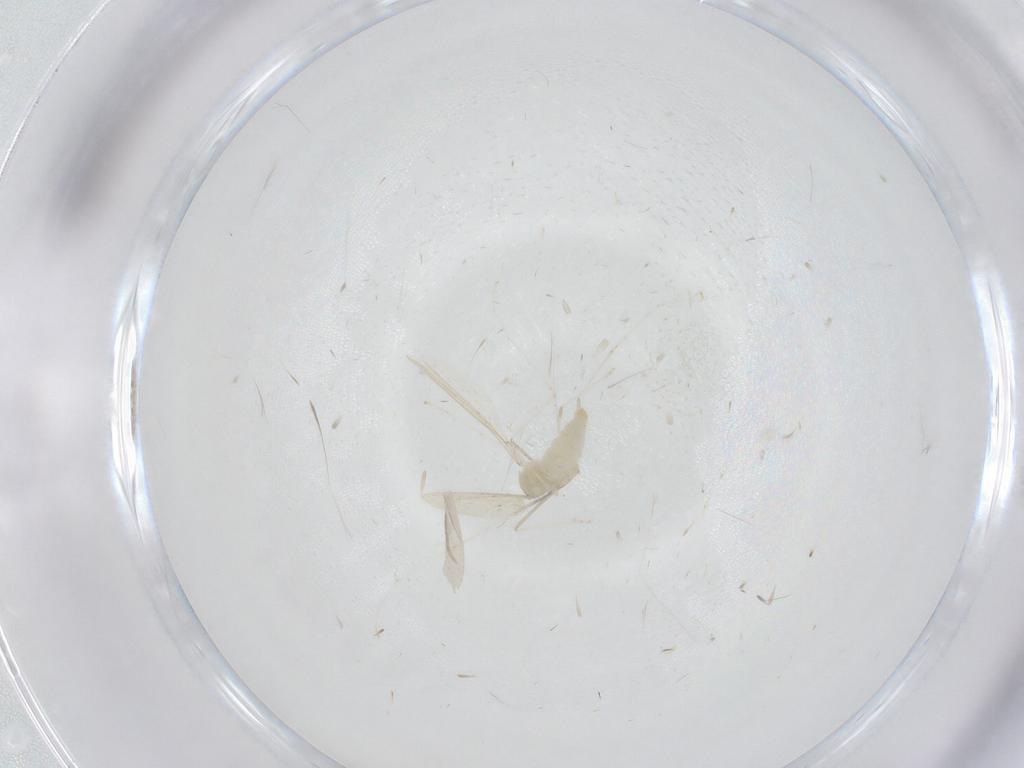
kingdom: Animalia
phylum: Arthropoda
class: Insecta
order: Diptera
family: Cecidomyiidae
